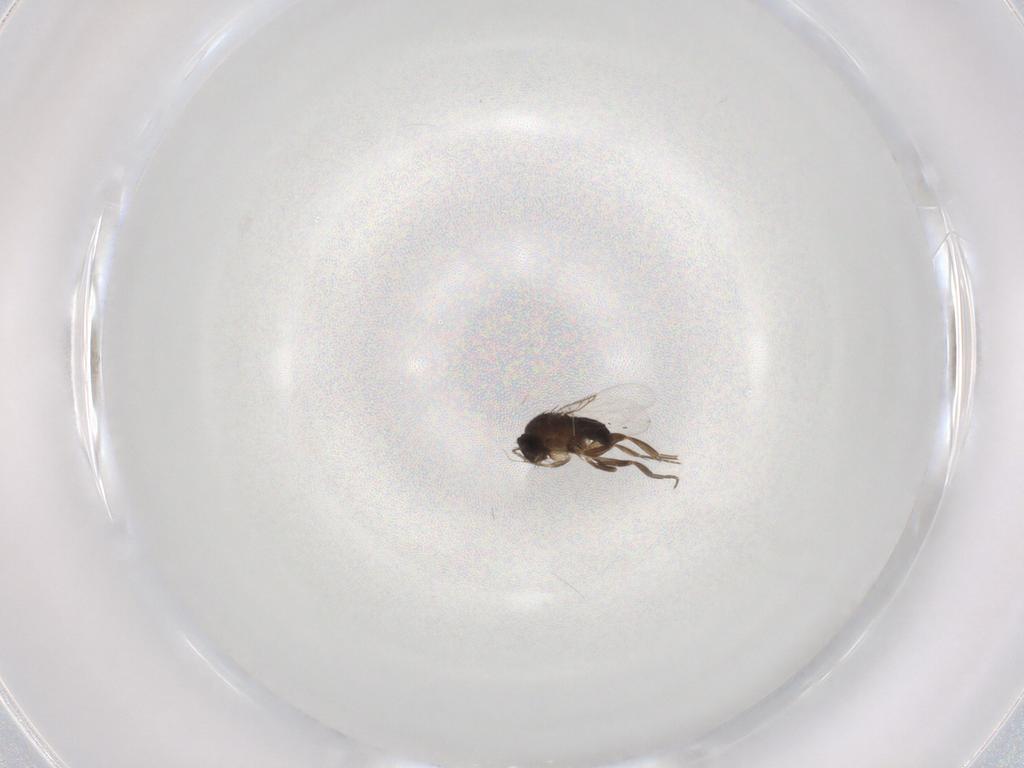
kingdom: Animalia
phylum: Arthropoda
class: Insecta
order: Diptera
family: Phoridae
